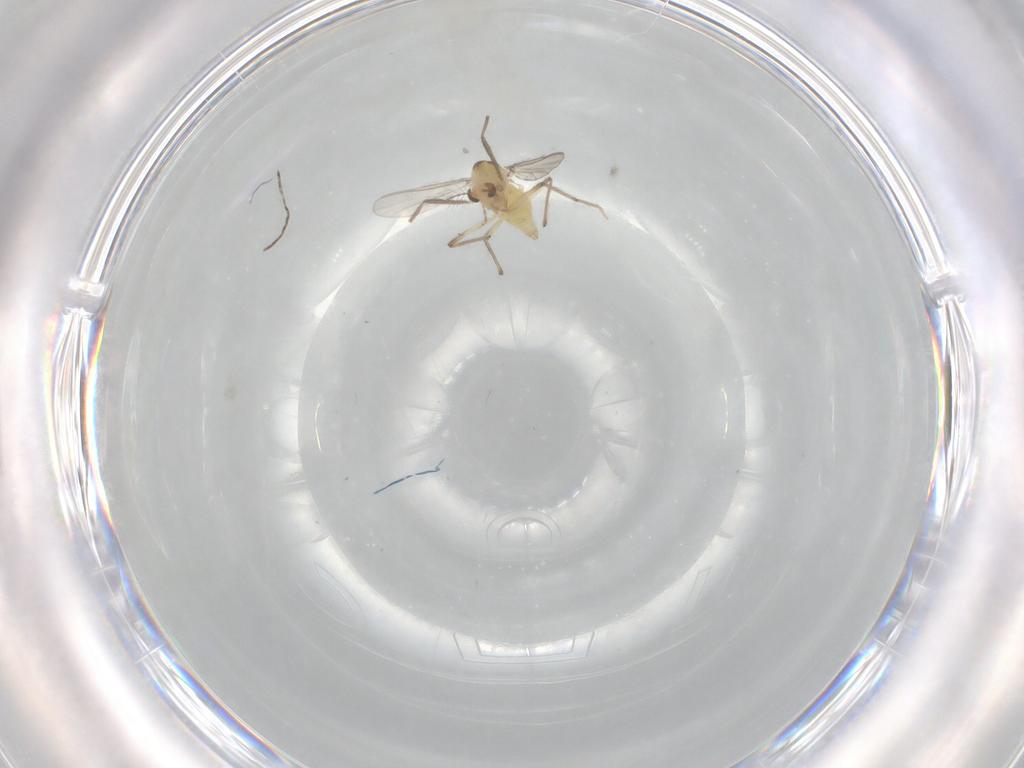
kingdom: Animalia
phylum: Arthropoda
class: Insecta
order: Diptera
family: Chironomidae
